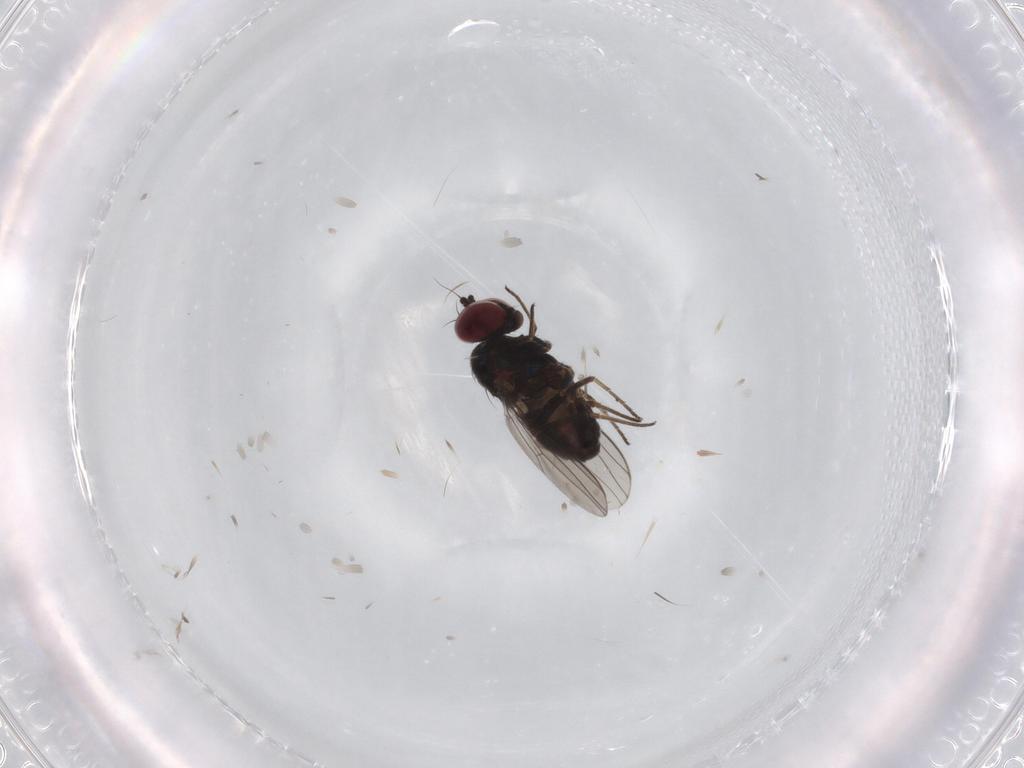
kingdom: Animalia
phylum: Arthropoda
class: Insecta
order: Diptera
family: Dolichopodidae
